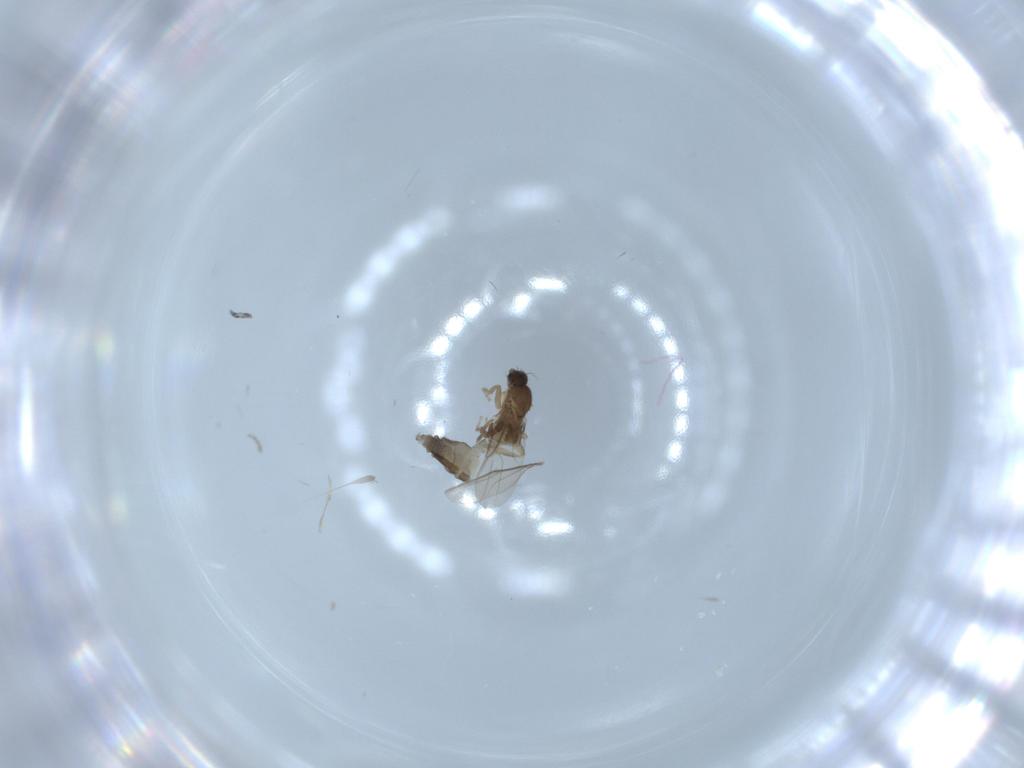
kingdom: Animalia
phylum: Arthropoda
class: Insecta
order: Diptera
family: Phoridae
